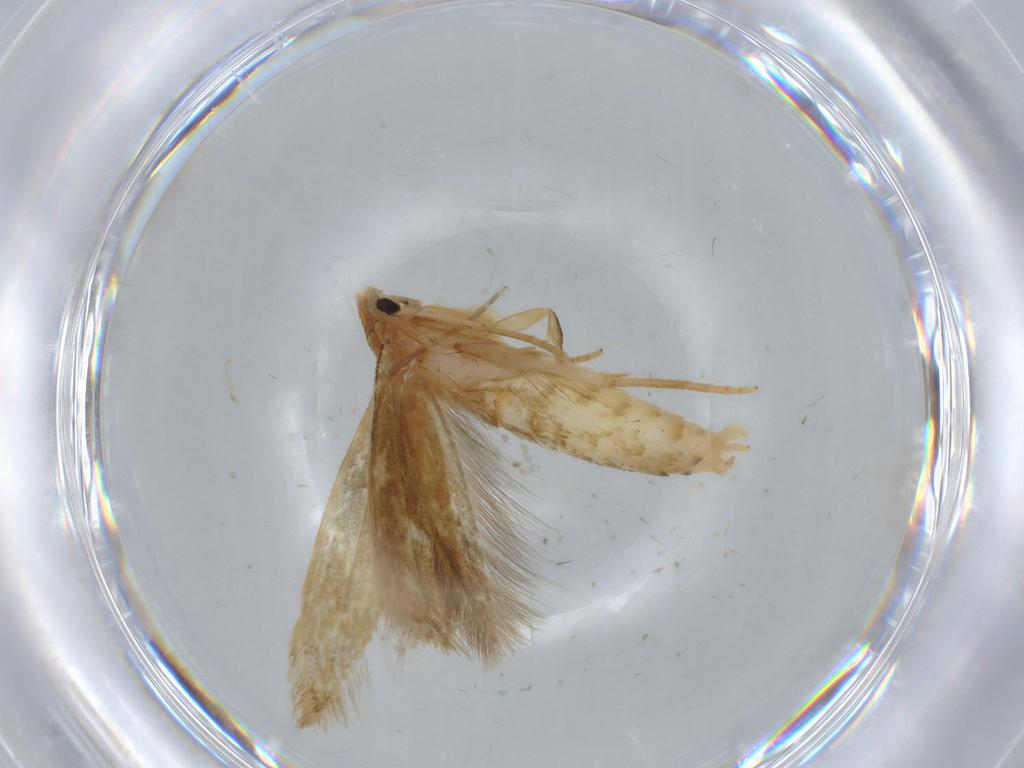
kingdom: Animalia
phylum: Arthropoda
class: Insecta
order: Lepidoptera
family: Tineidae
